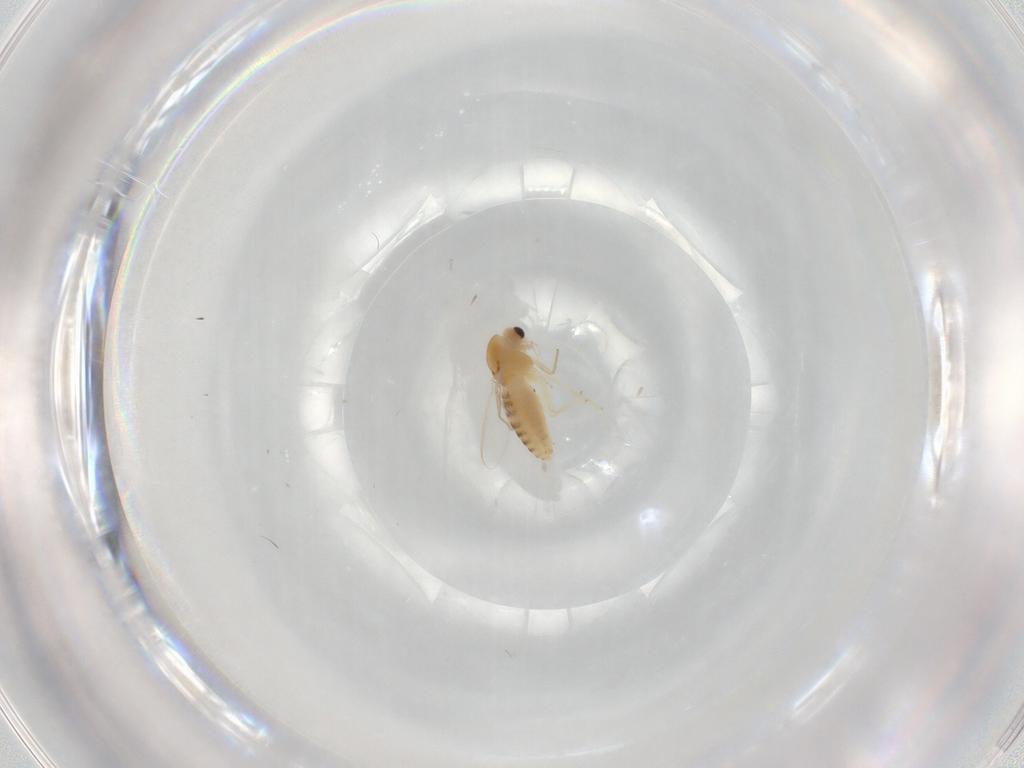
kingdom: Animalia
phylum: Arthropoda
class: Insecta
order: Diptera
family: Chironomidae
